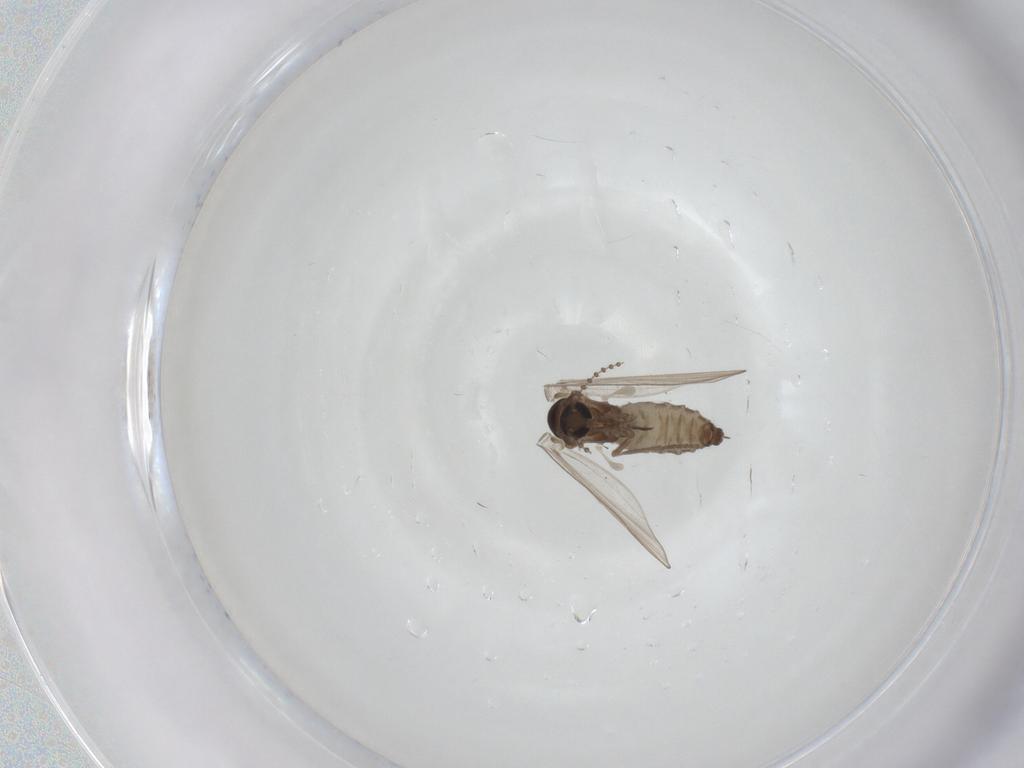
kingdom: Animalia
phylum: Arthropoda
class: Insecta
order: Diptera
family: Psychodidae
